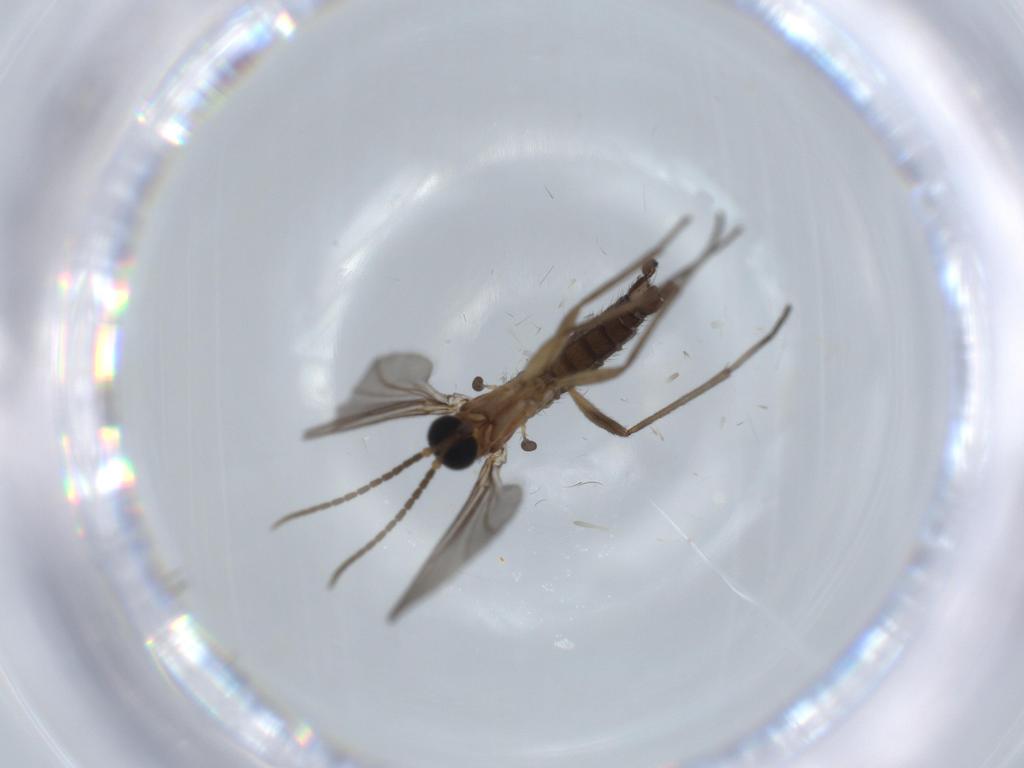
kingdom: Animalia
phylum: Arthropoda
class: Insecta
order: Diptera
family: Sciaridae
